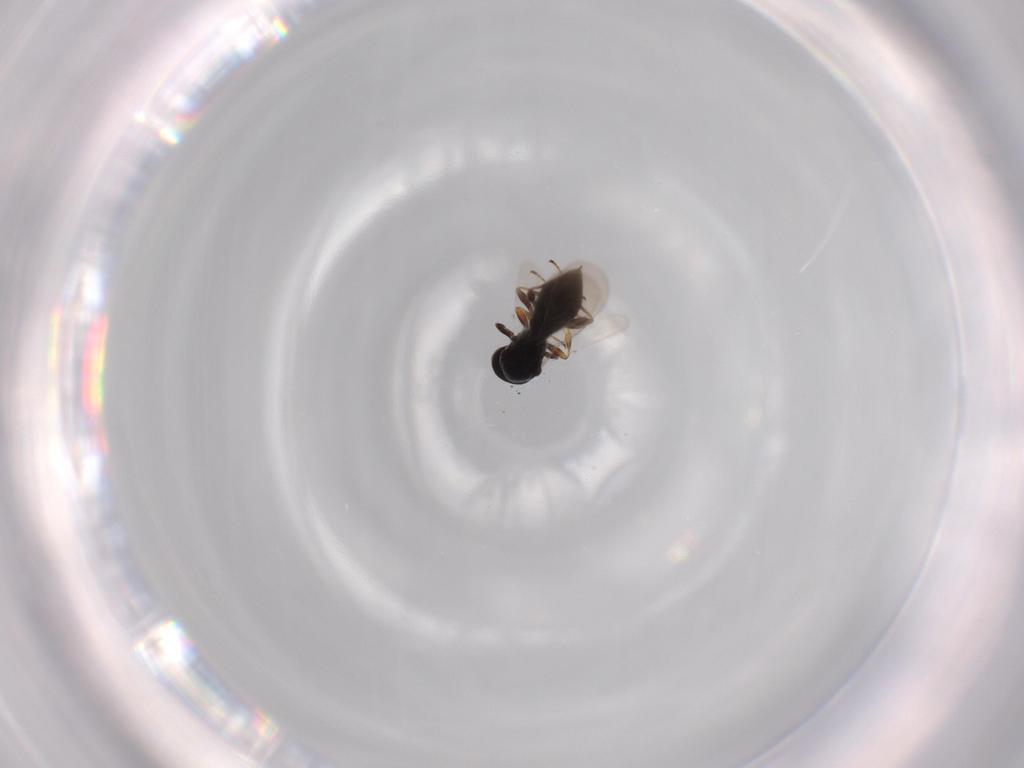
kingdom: Animalia
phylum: Arthropoda
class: Insecta
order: Hymenoptera
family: Platygastridae
